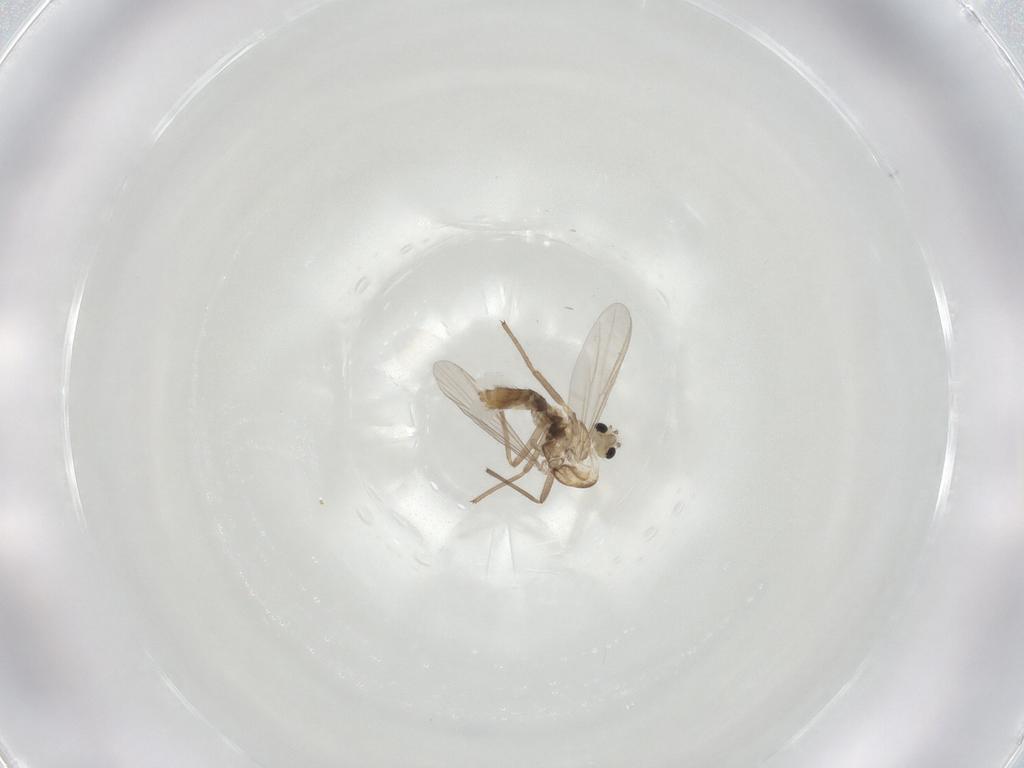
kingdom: Animalia
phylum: Arthropoda
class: Insecta
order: Diptera
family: Chironomidae
